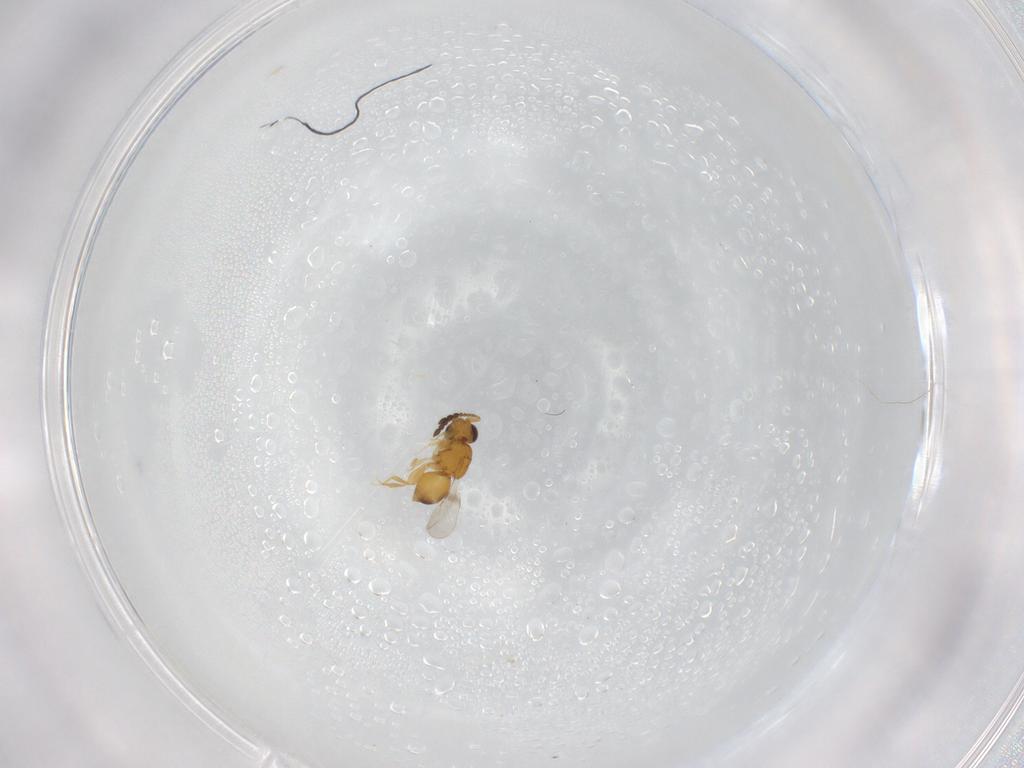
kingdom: Animalia
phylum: Arthropoda
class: Insecta
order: Hymenoptera
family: Ceraphronidae
